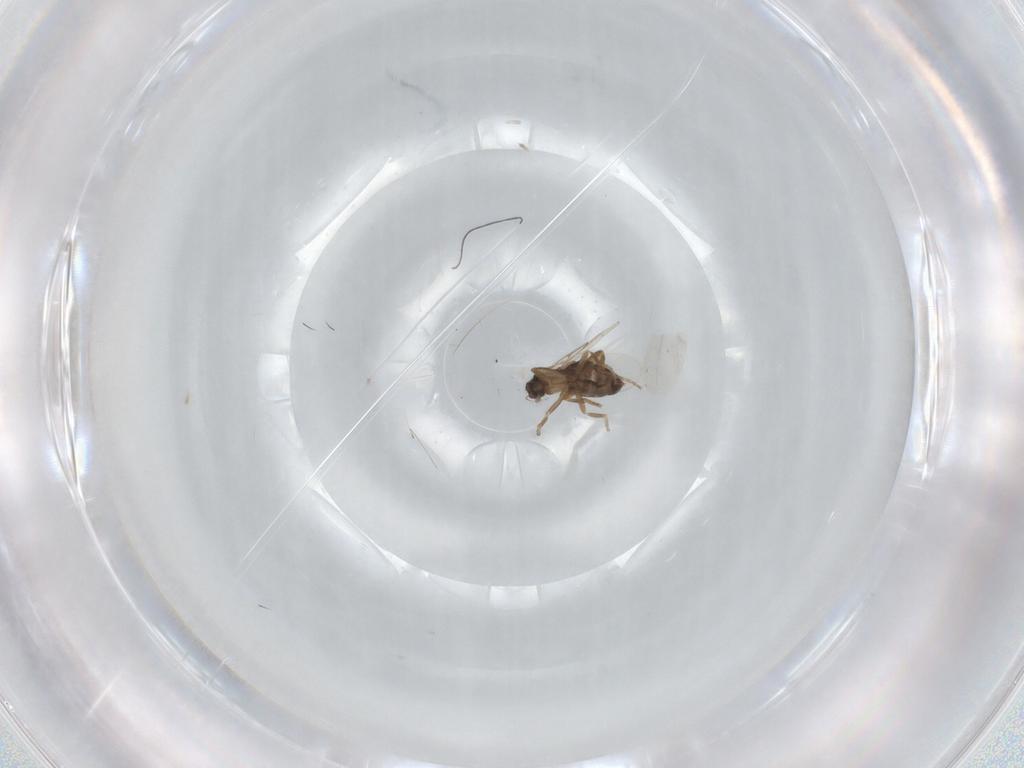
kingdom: Animalia
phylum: Arthropoda
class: Insecta
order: Diptera
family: Phoridae
